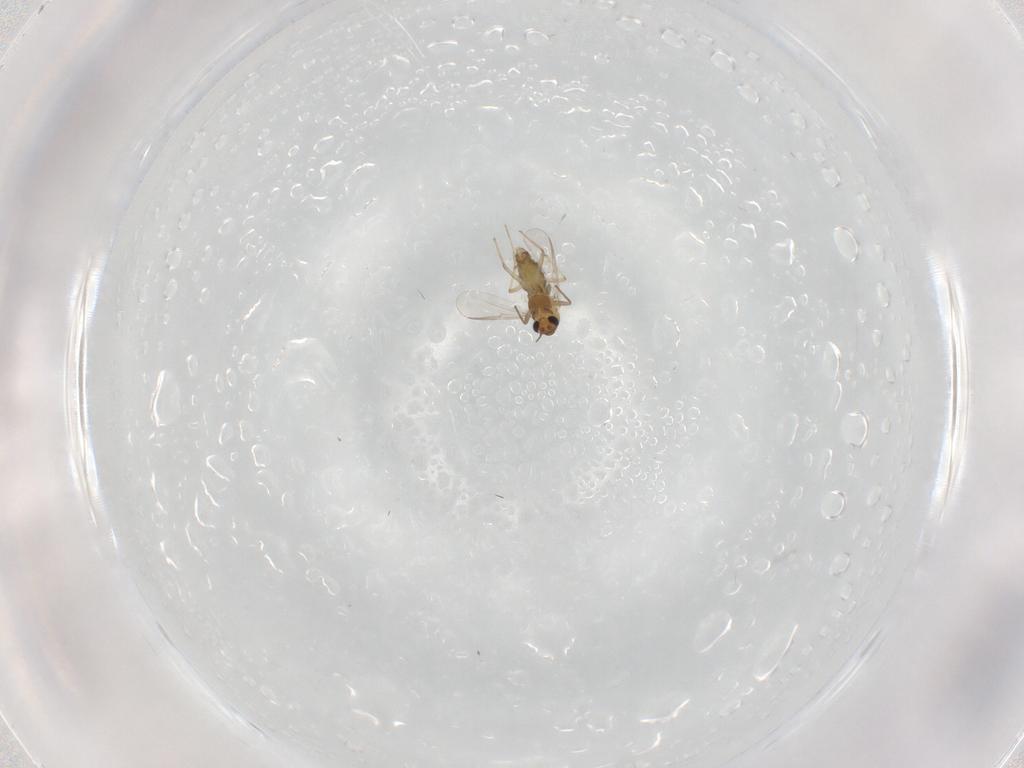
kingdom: Animalia
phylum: Arthropoda
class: Insecta
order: Diptera
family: Chironomidae
